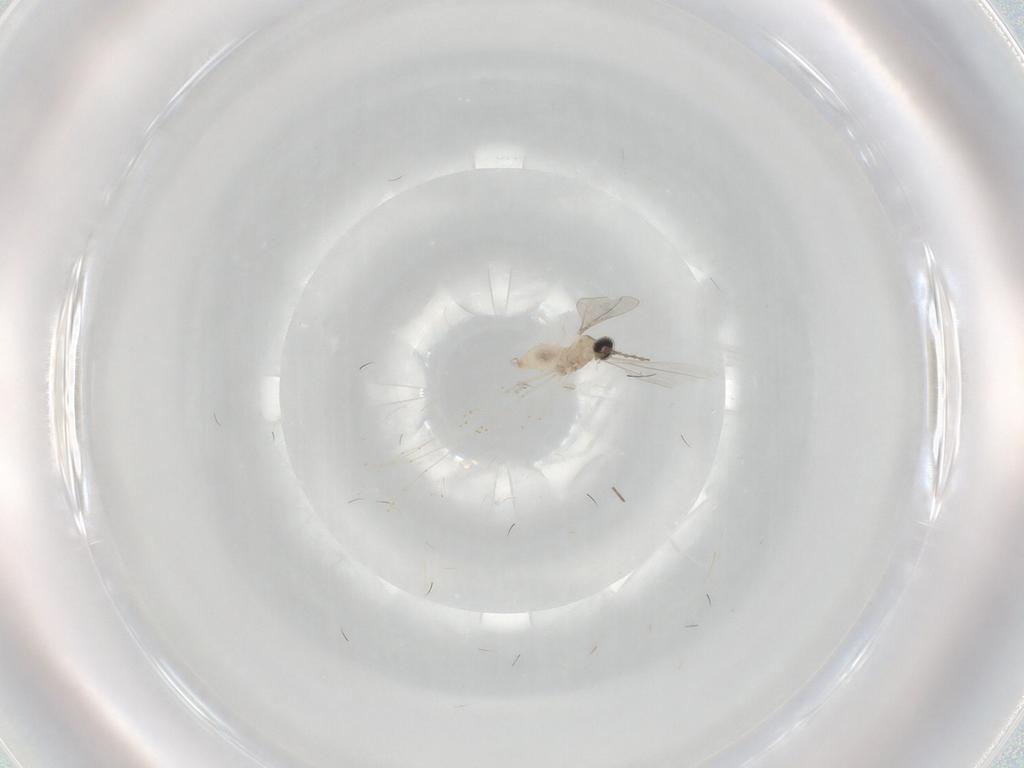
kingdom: Animalia
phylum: Arthropoda
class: Insecta
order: Diptera
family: Cecidomyiidae
